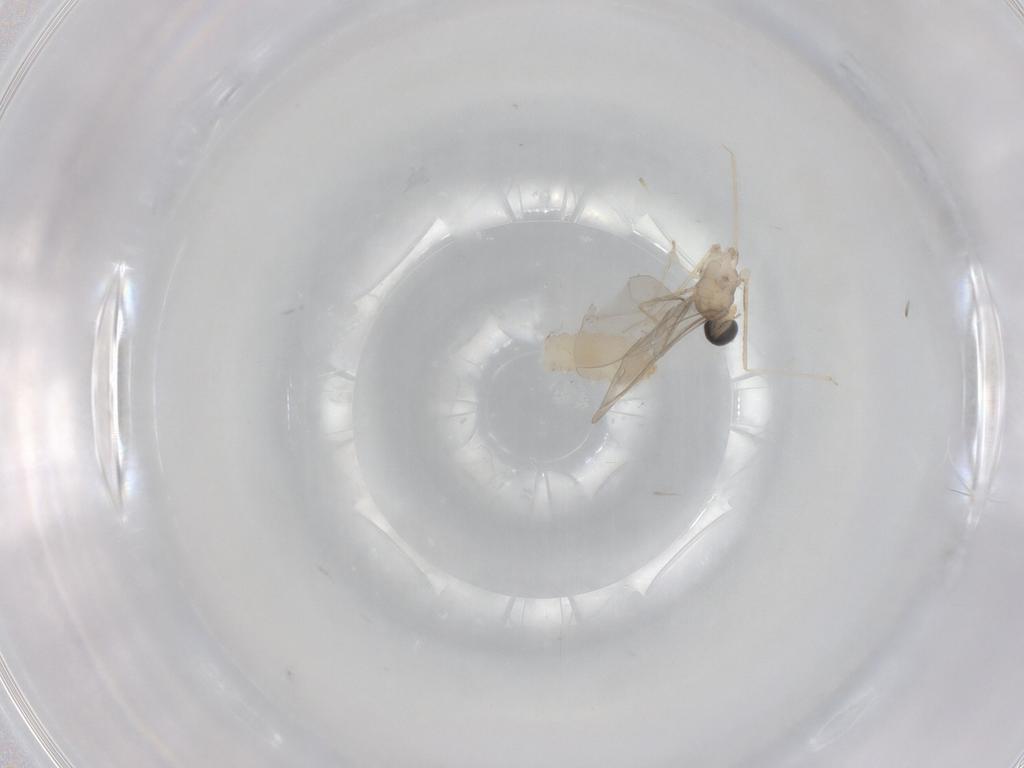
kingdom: Animalia
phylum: Arthropoda
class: Insecta
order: Diptera
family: Cecidomyiidae
